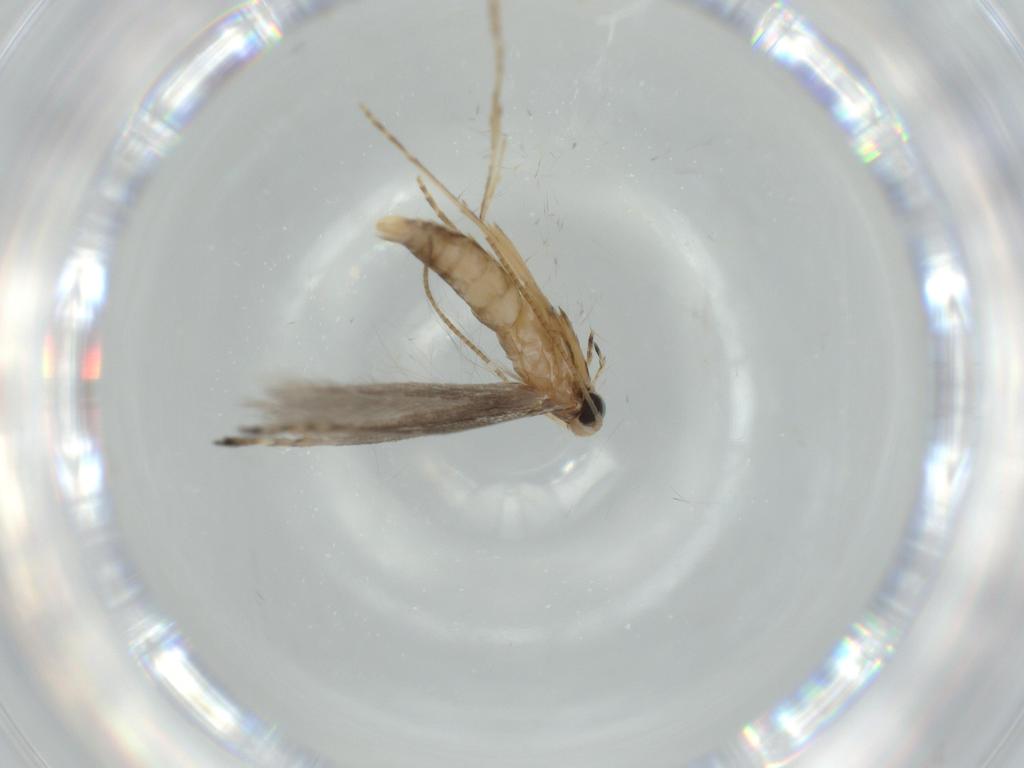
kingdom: Animalia
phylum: Arthropoda
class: Insecta
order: Lepidoptera
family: Gracillariidae
